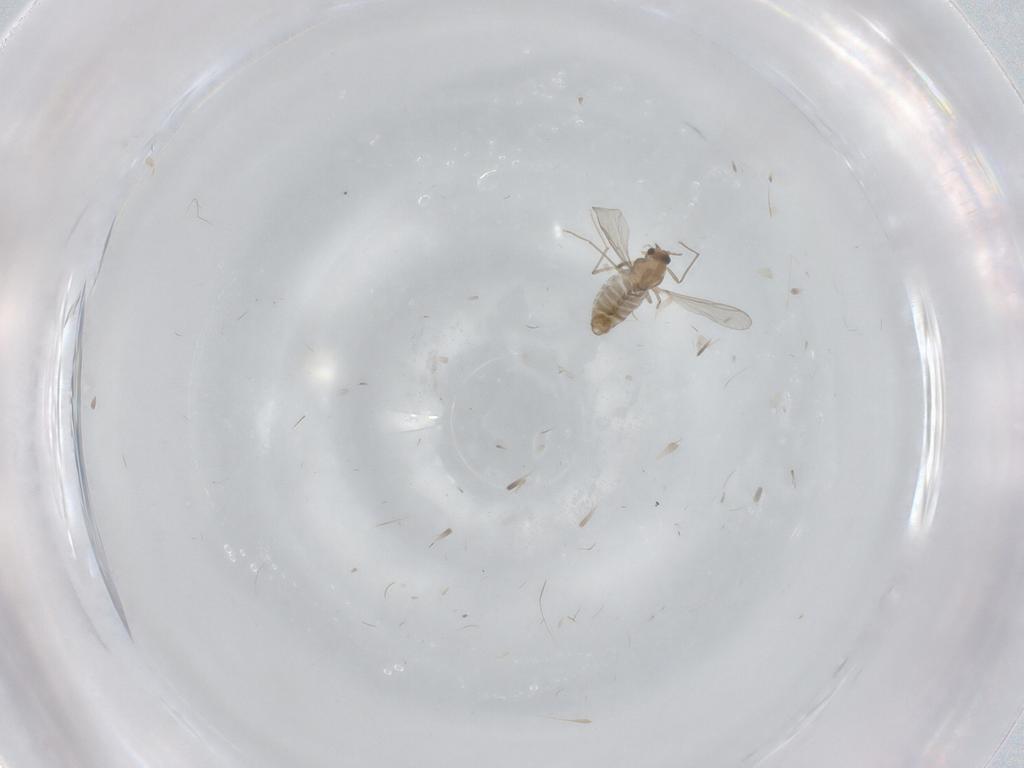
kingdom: Animalia
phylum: Arthropoda
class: Insecta
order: Diptera
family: Chironomidae
